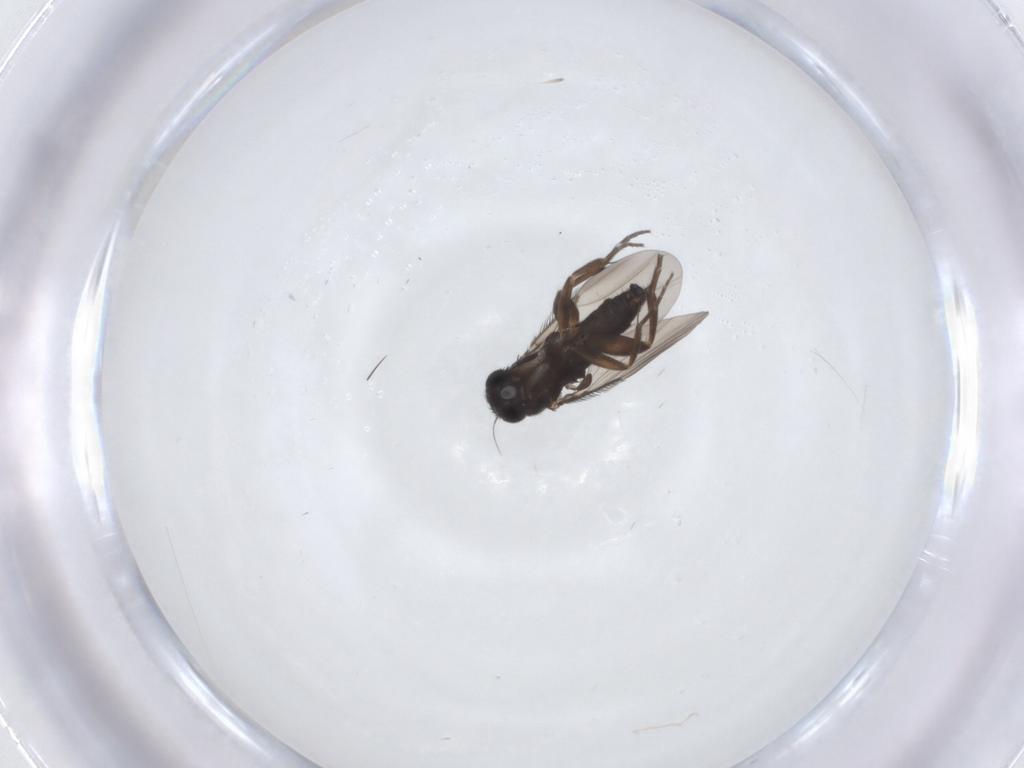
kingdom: Animalia
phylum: Arthropoda
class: Insecta
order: Diptera
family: Phoridae
